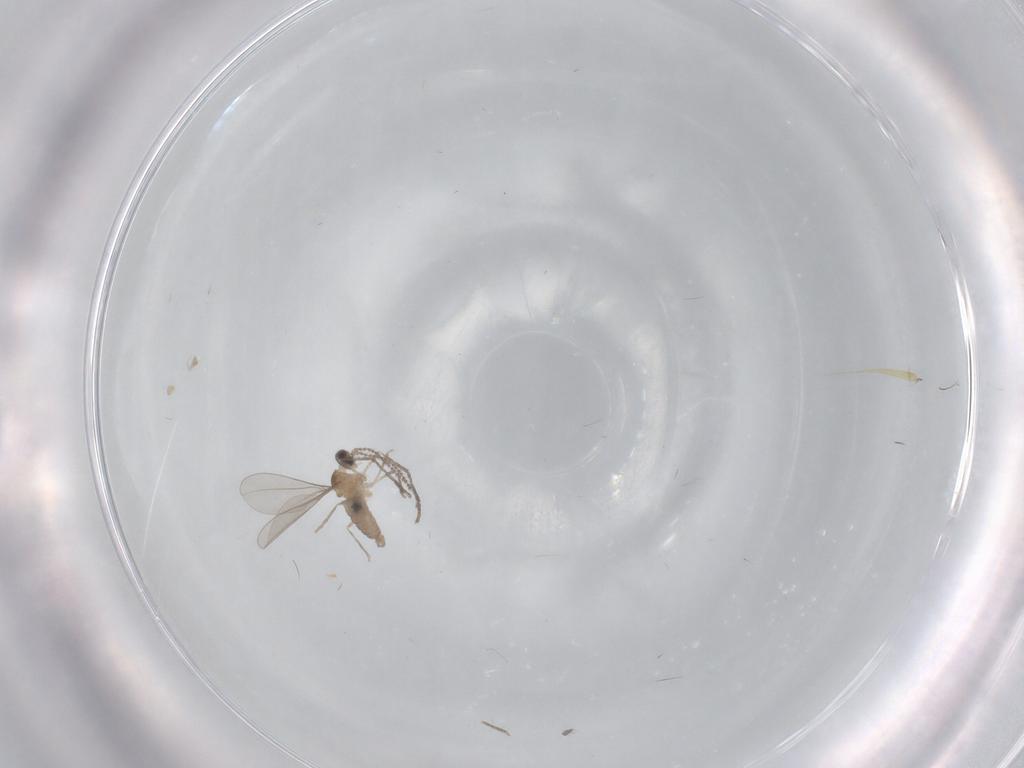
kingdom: Animalia
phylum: Arthropoda
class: Insecta
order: Diptera
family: Cecidomyiidae
